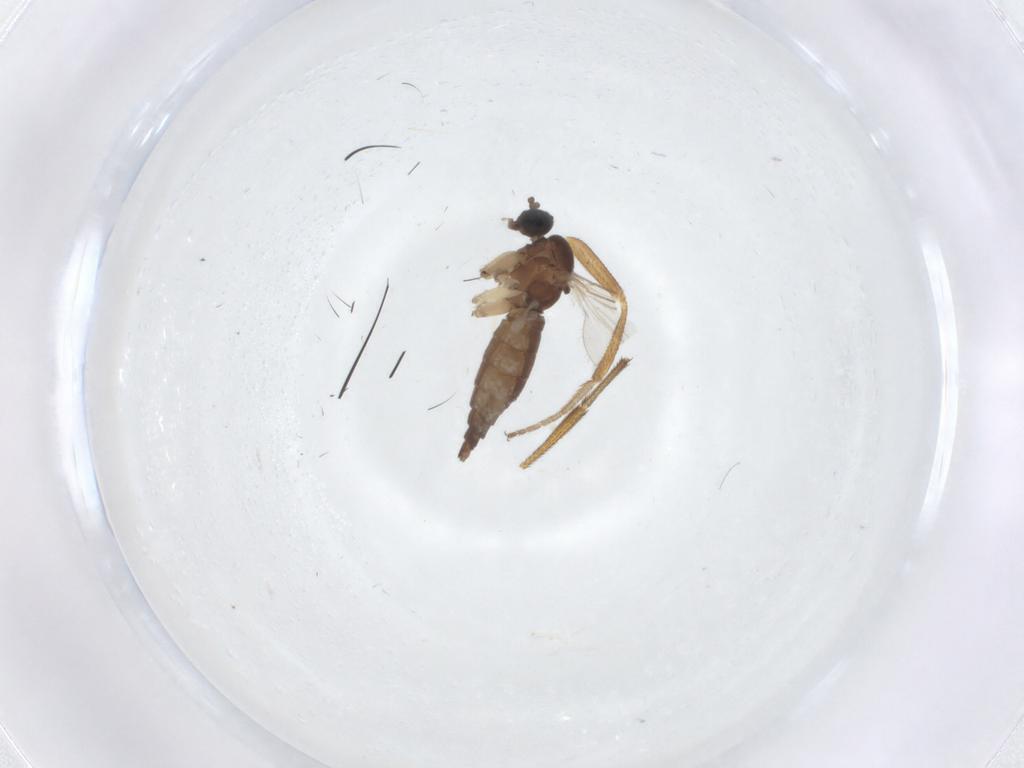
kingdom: Animalia
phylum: Arthropoda
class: Insecta
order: Diptera
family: Sciaridae
